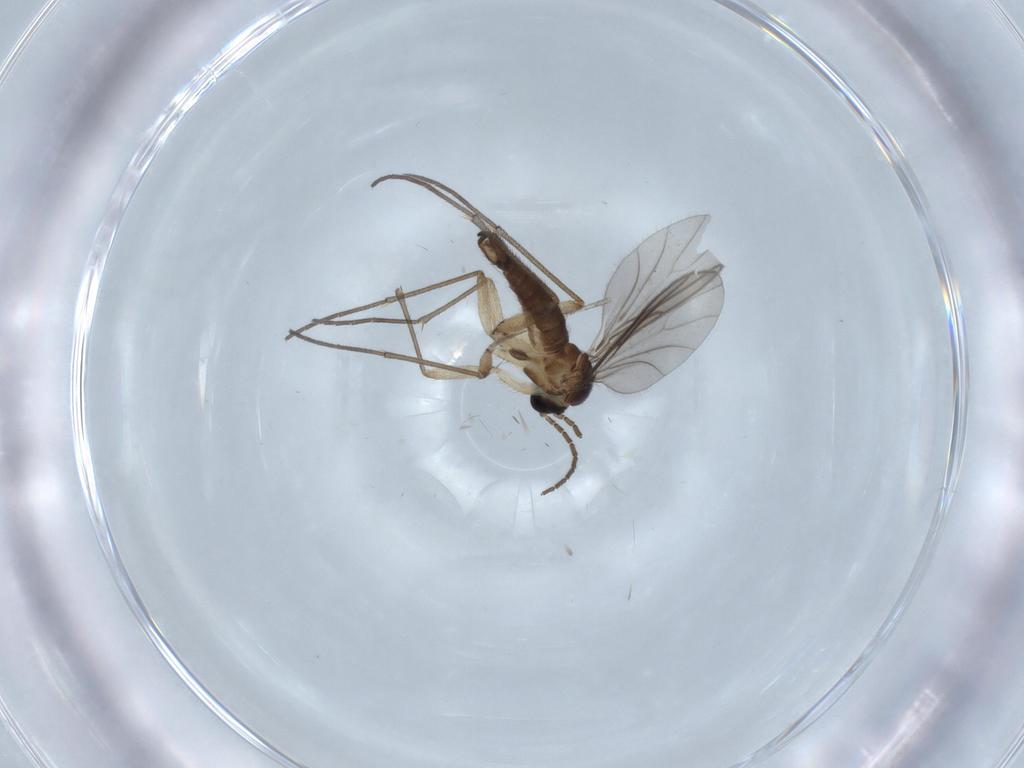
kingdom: Animalia
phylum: Arthropoda
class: Insecta
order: Diptera
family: Sciaridae
